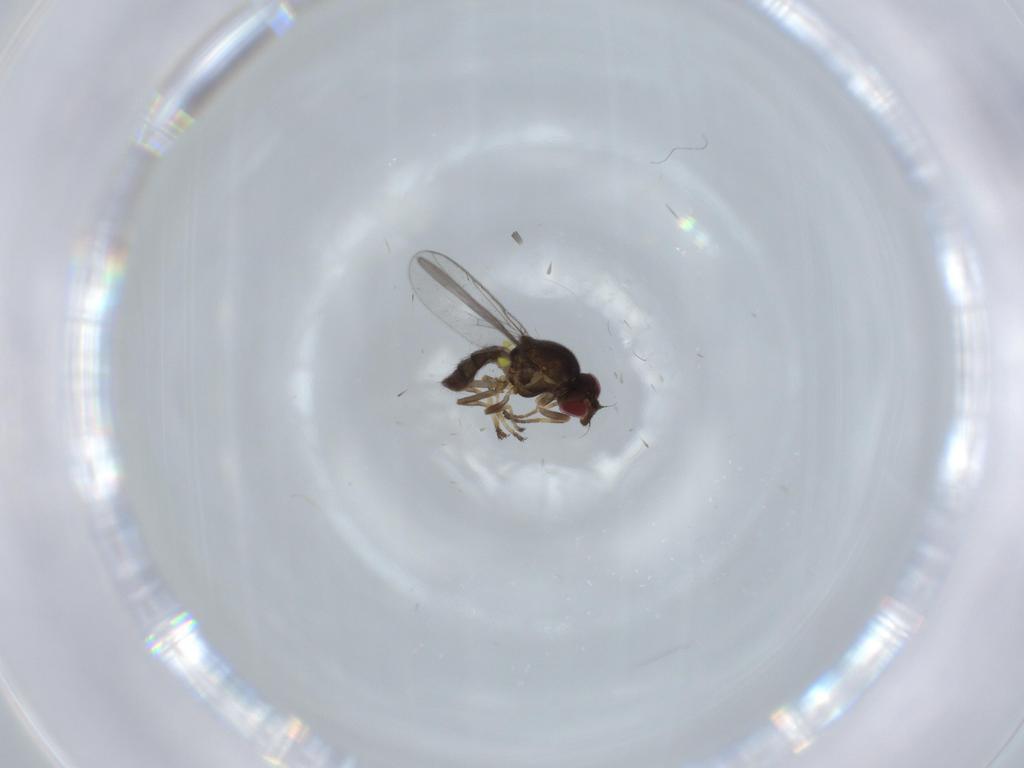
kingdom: Animalia
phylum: Arthropoda
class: Insecta
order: Diptera
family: Chloropidae
